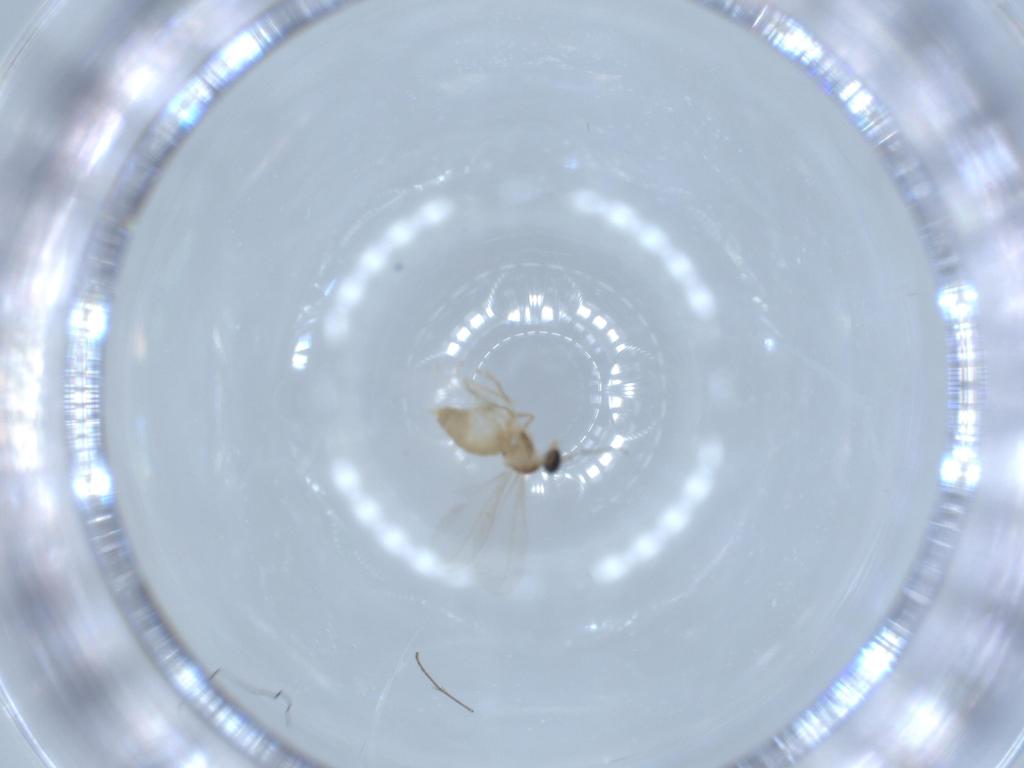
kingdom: Animalia
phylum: Arthropoda
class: Insecta
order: Diptera
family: Cecidomyiidae
